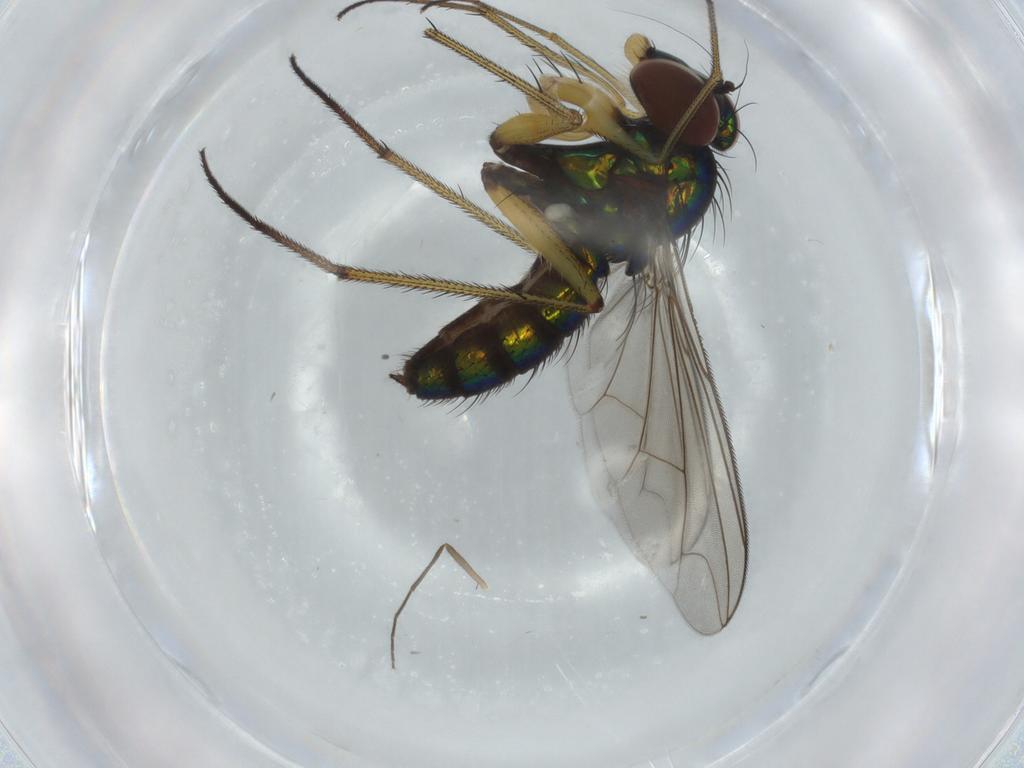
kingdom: Animalia
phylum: Arthropoda
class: Insecta
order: Diptera
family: Dolichopodidae
